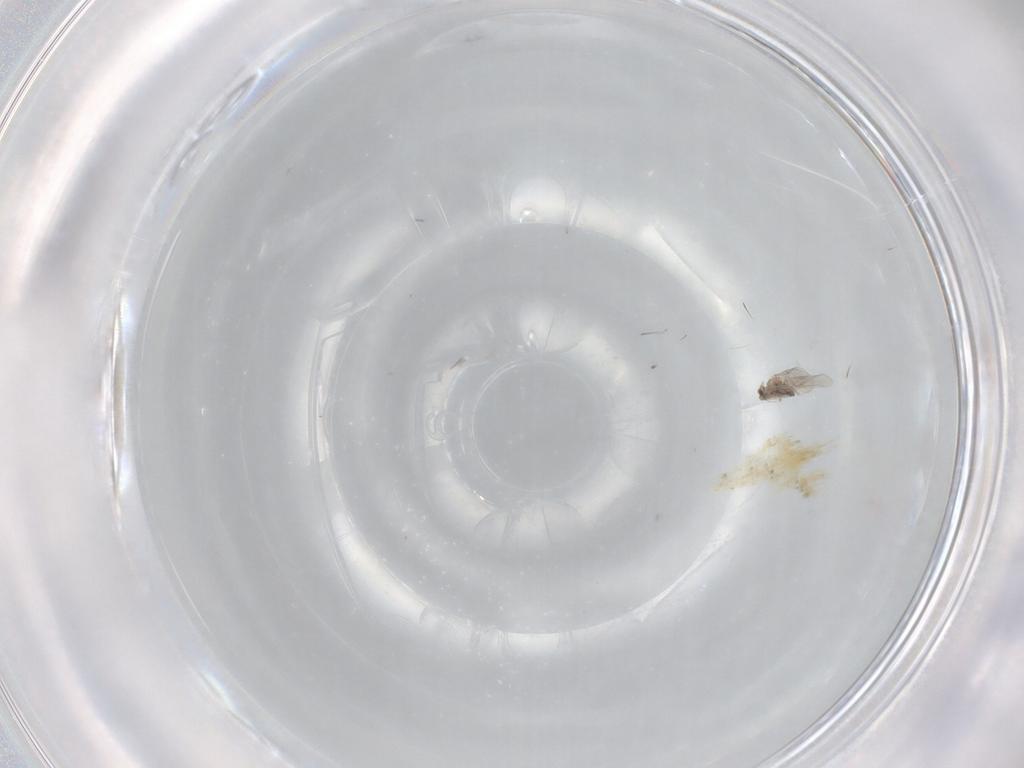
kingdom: Animalia
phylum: Arthropoda
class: Insecta
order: Diptera
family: Cecidomyiidae
